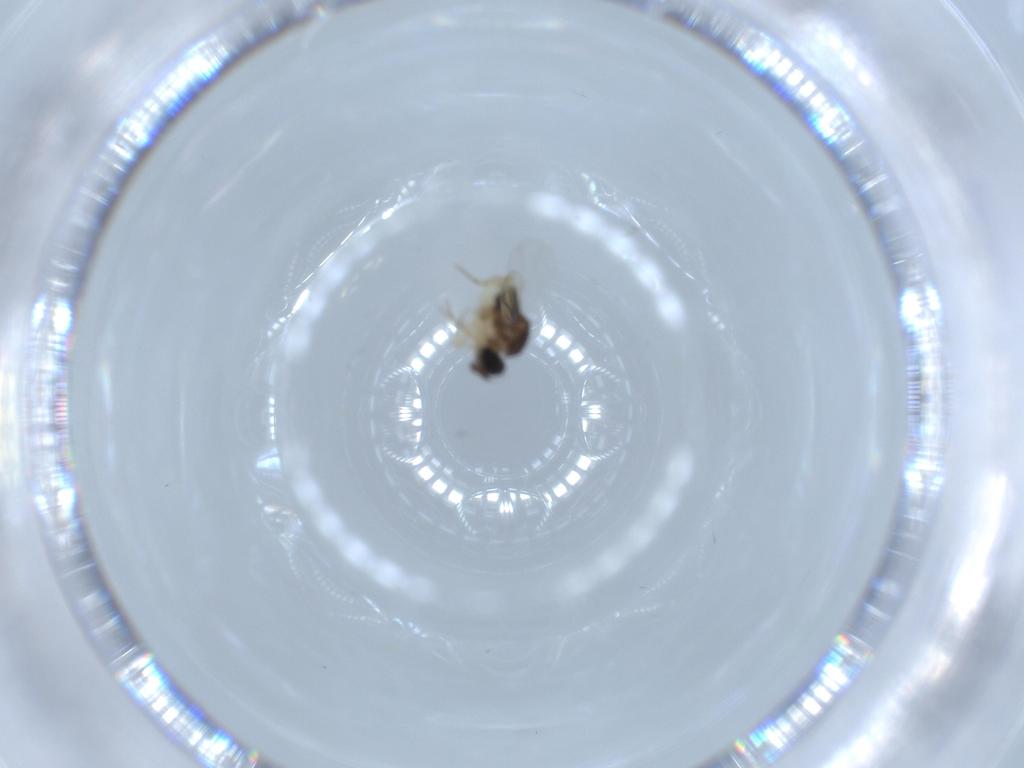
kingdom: Animalia
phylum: Arthropoda
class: Insecta
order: Diptera
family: Phoridae
